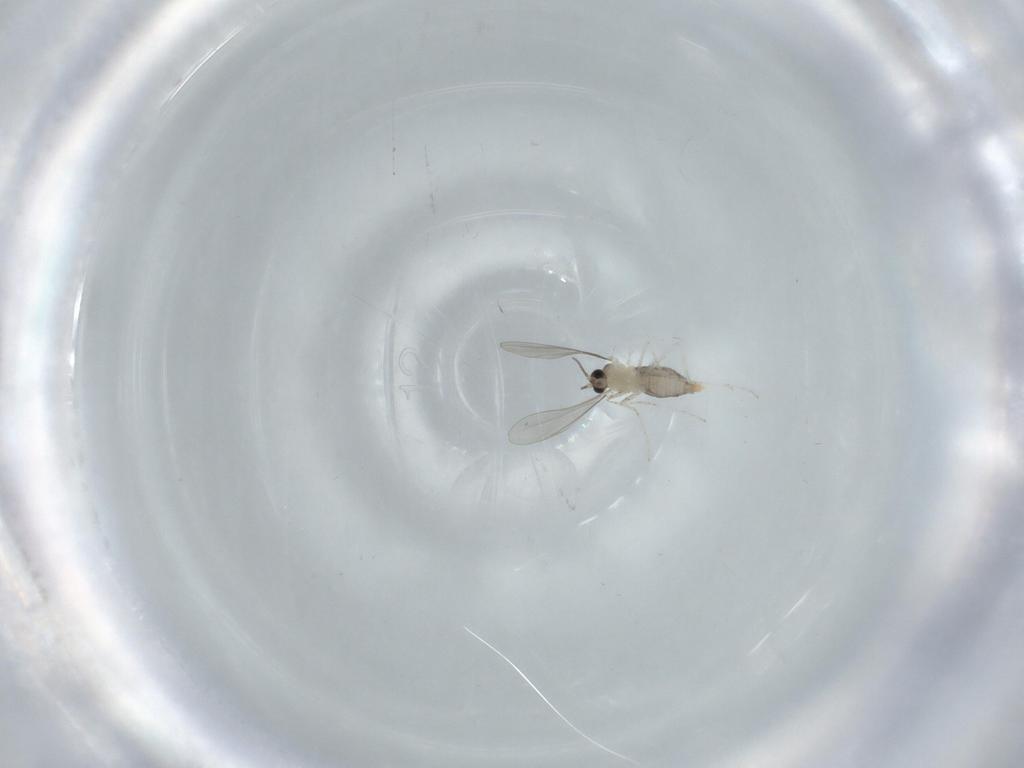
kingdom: Animalia
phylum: Arthropoda
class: Insecta
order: Diptera
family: Cecidomyiidae
